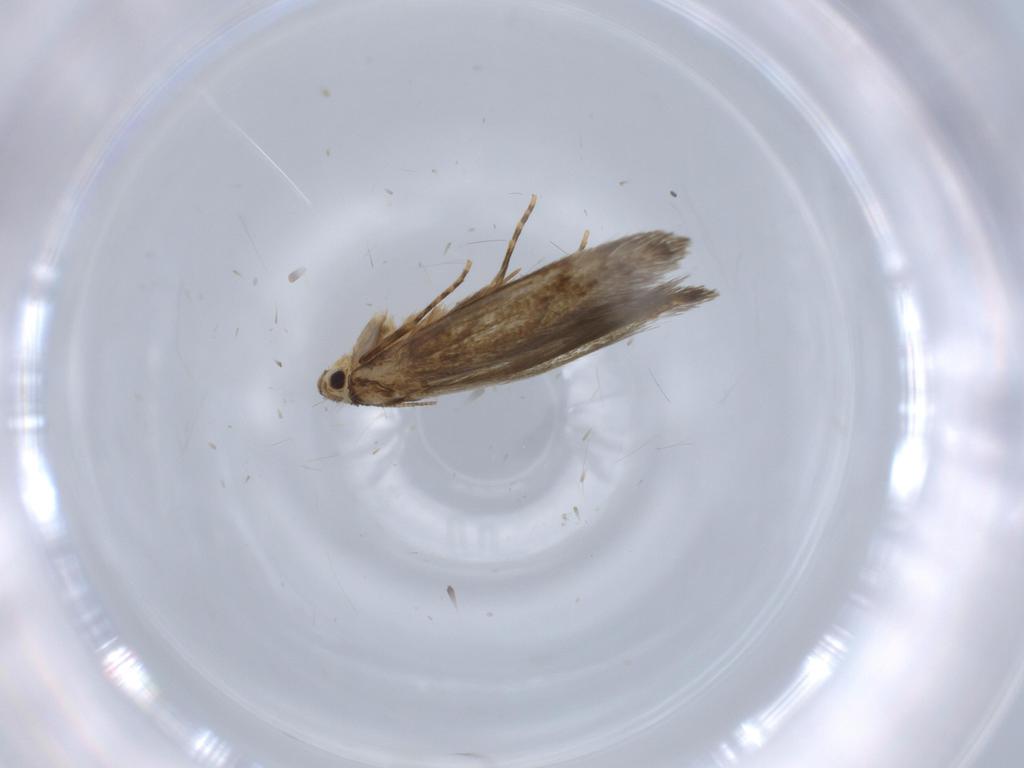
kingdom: Animalia
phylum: Arthropoda
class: Insecta
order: Lepidoptera
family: Tineidae
